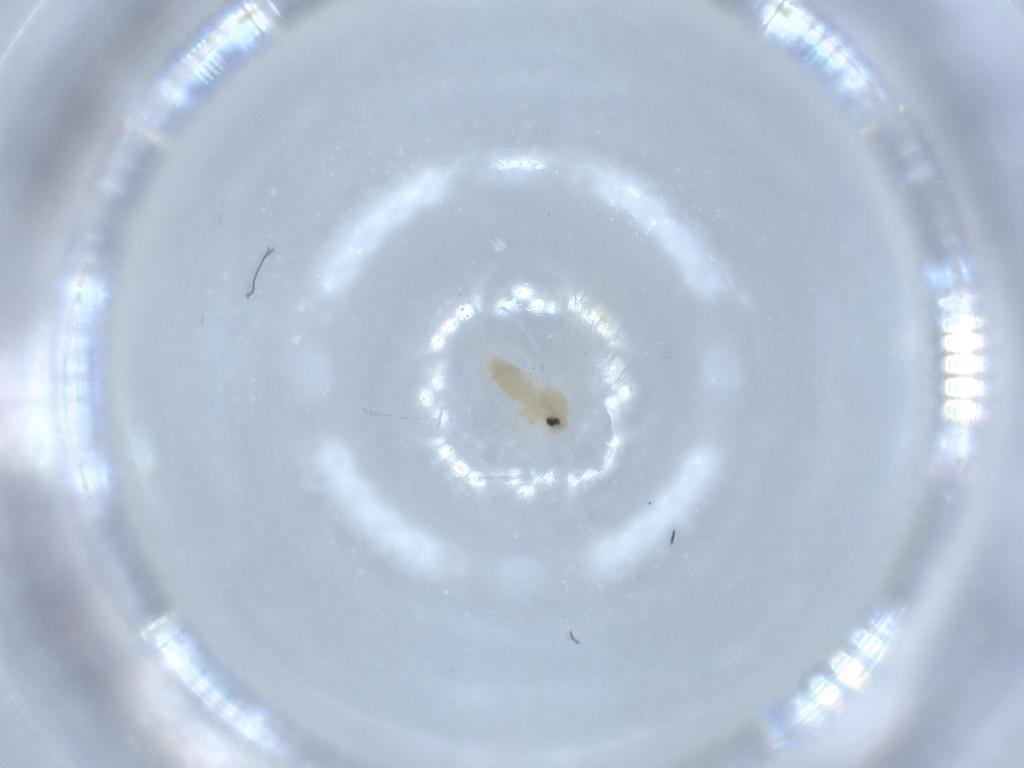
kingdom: Animalia
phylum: Arthropoda
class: Insecta
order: Hemiptera
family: Aleyrodidae
